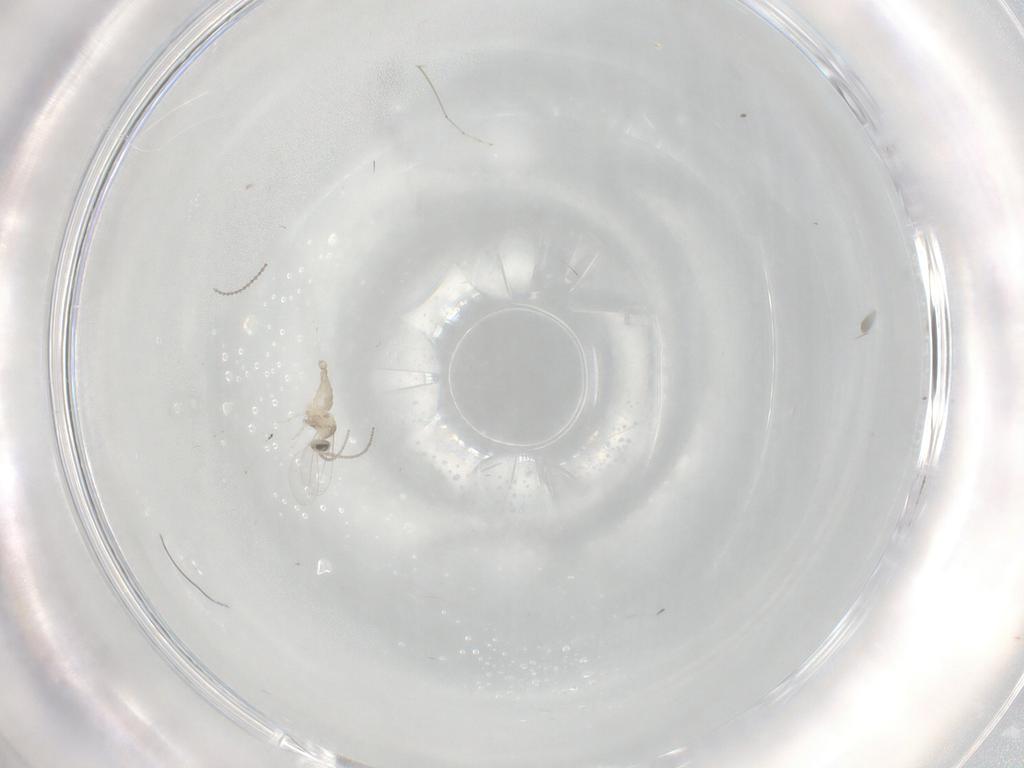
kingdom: Animalia
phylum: Arthropoda
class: Insecta
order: Diptera
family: Cecidomyiidae
